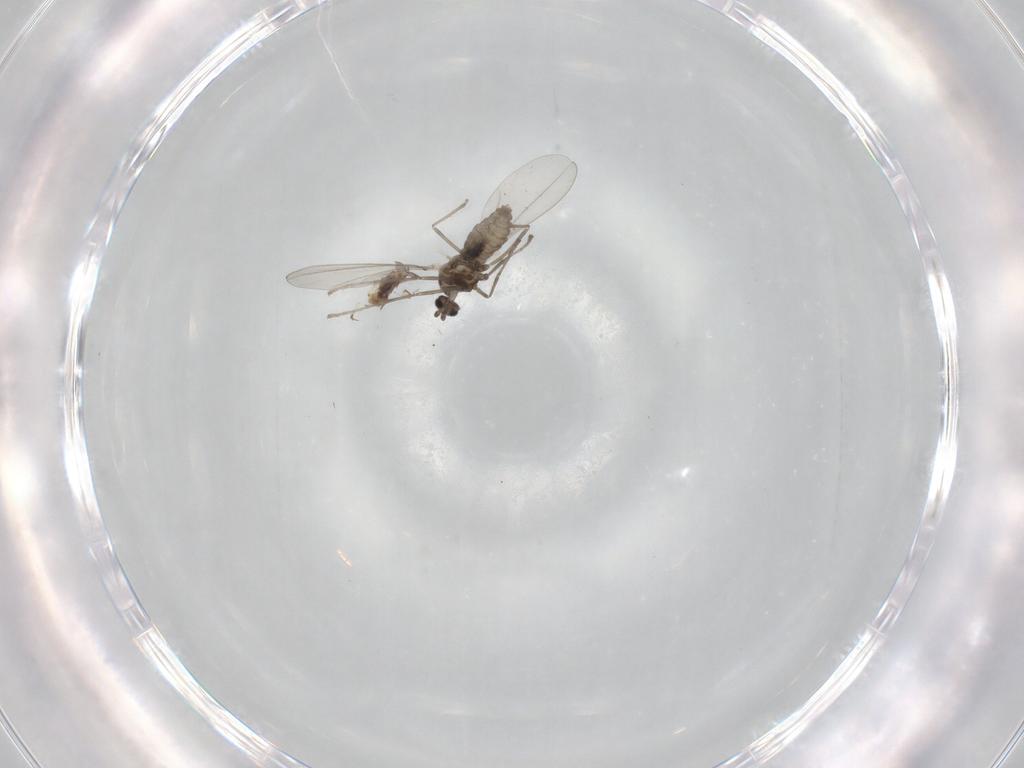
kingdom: Animalia
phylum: Arthropoda
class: Insecta
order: Diptera
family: Cecidomyiidae
